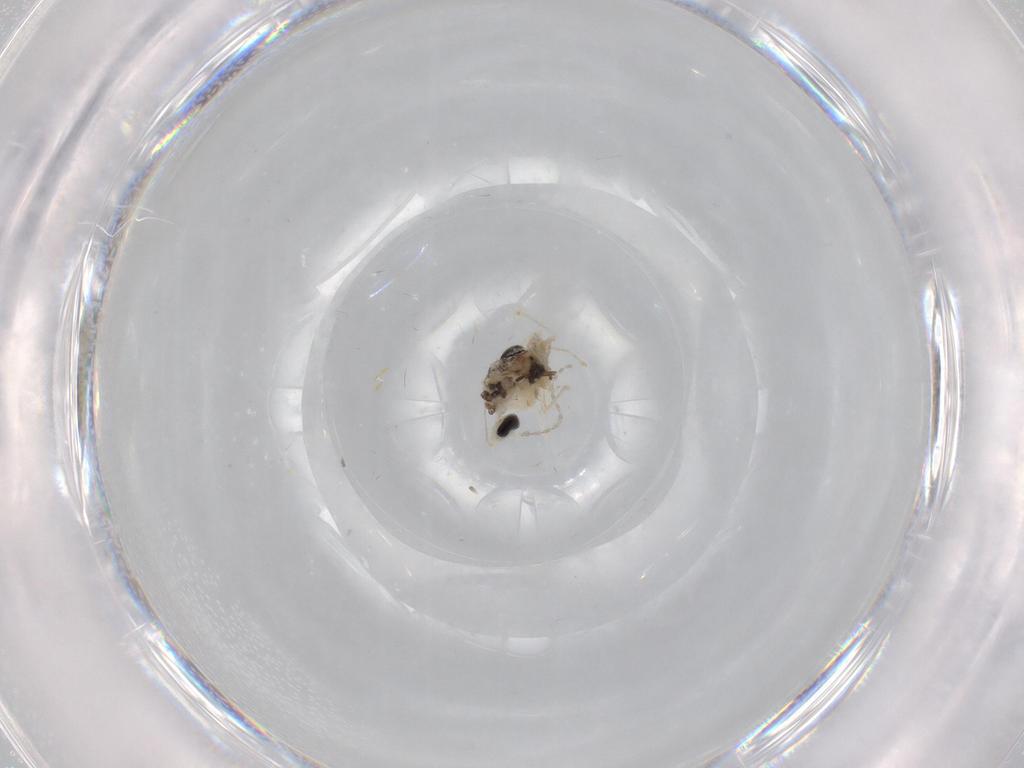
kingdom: Animalia
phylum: Arthropoda
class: Insecta
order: Diptera
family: Cecidomyiidae
